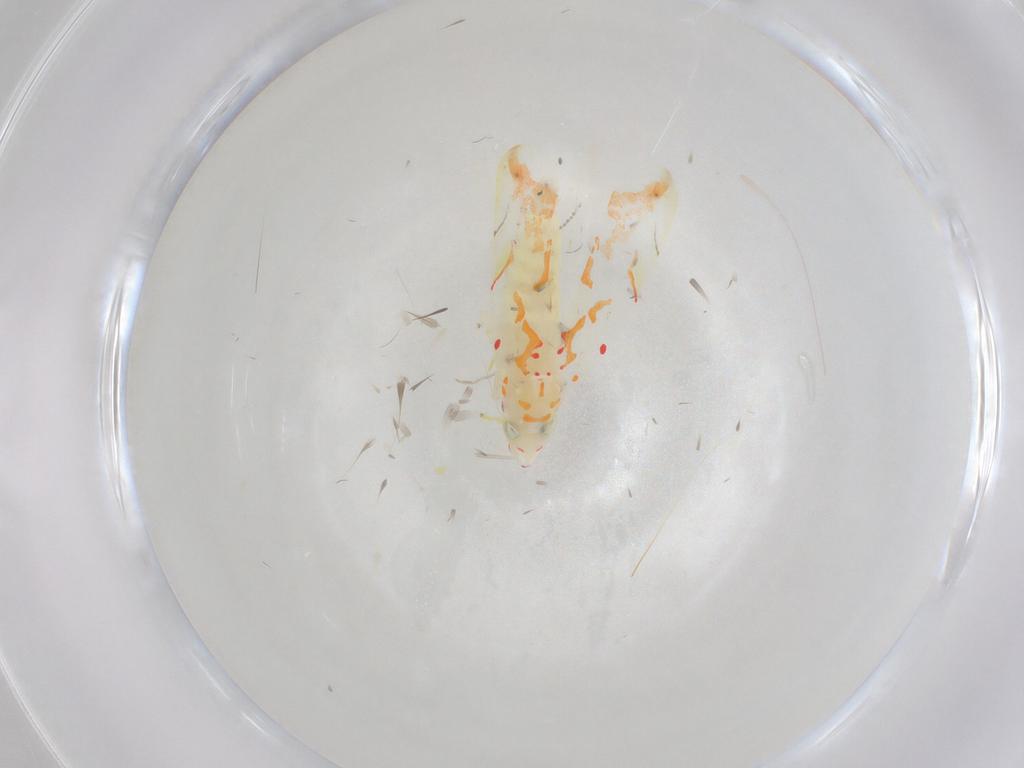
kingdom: Animalia
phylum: Arthropoda
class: Insecta
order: Hemiptera
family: Cicadellidae
